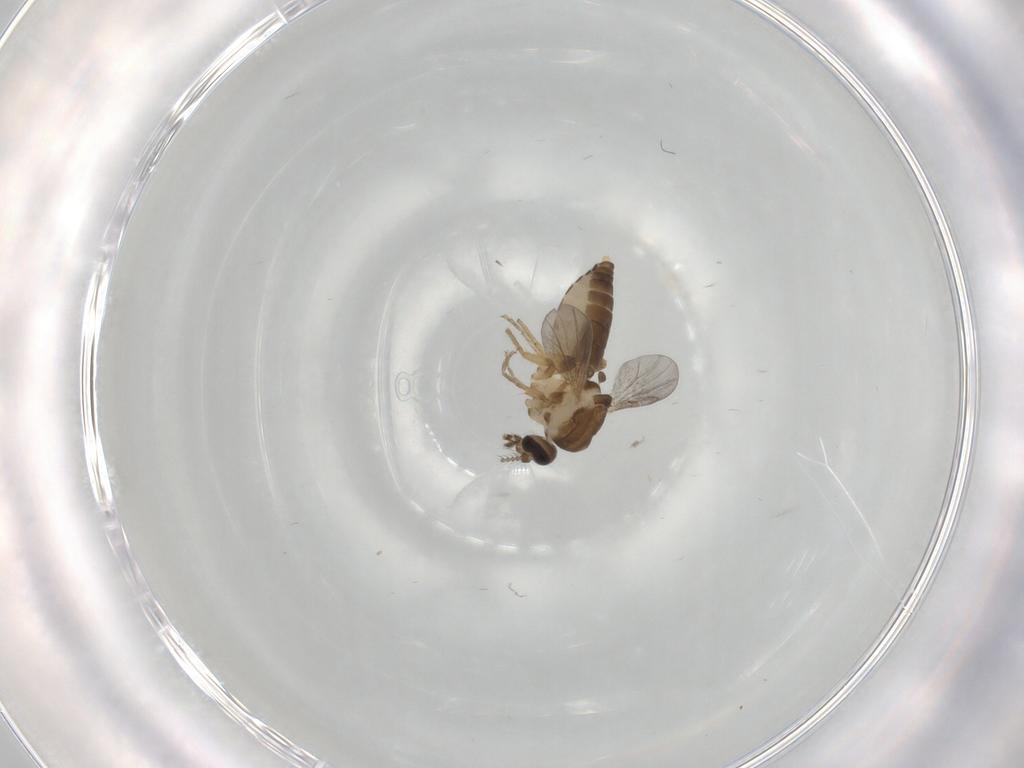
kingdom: Animalia
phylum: Arthropoda
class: Insecta
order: Diptera
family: Ceratopogonidae
